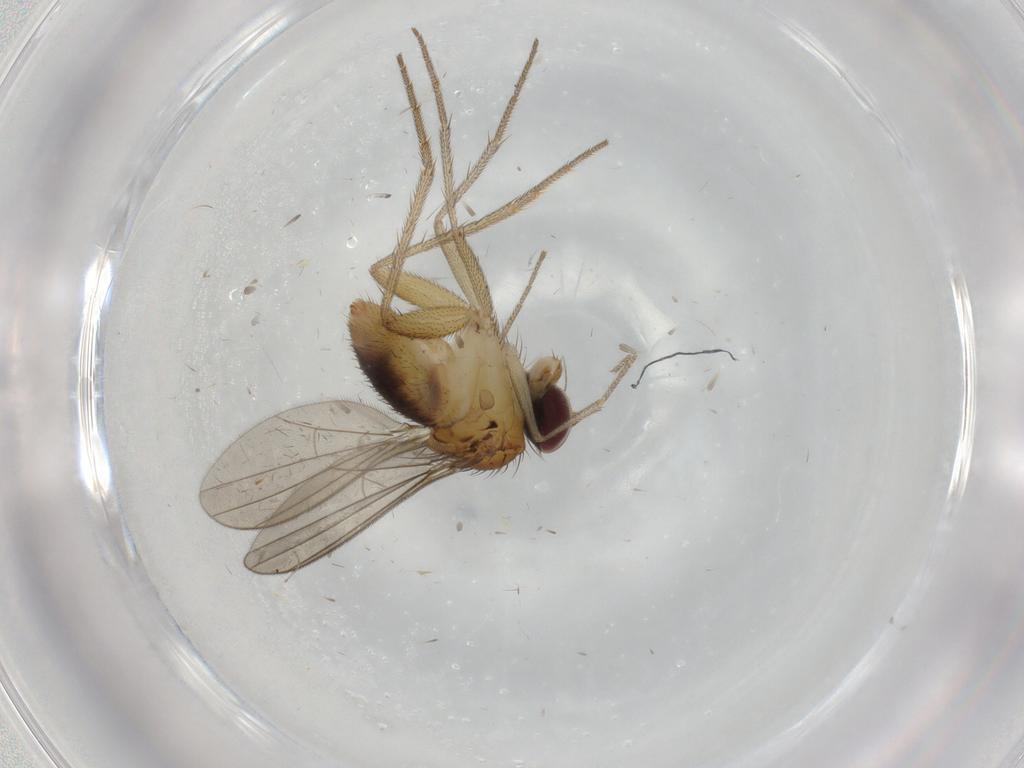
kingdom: Animalia
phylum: Arthropoda
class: Insecta
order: Diptera
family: Dolichopodidae
